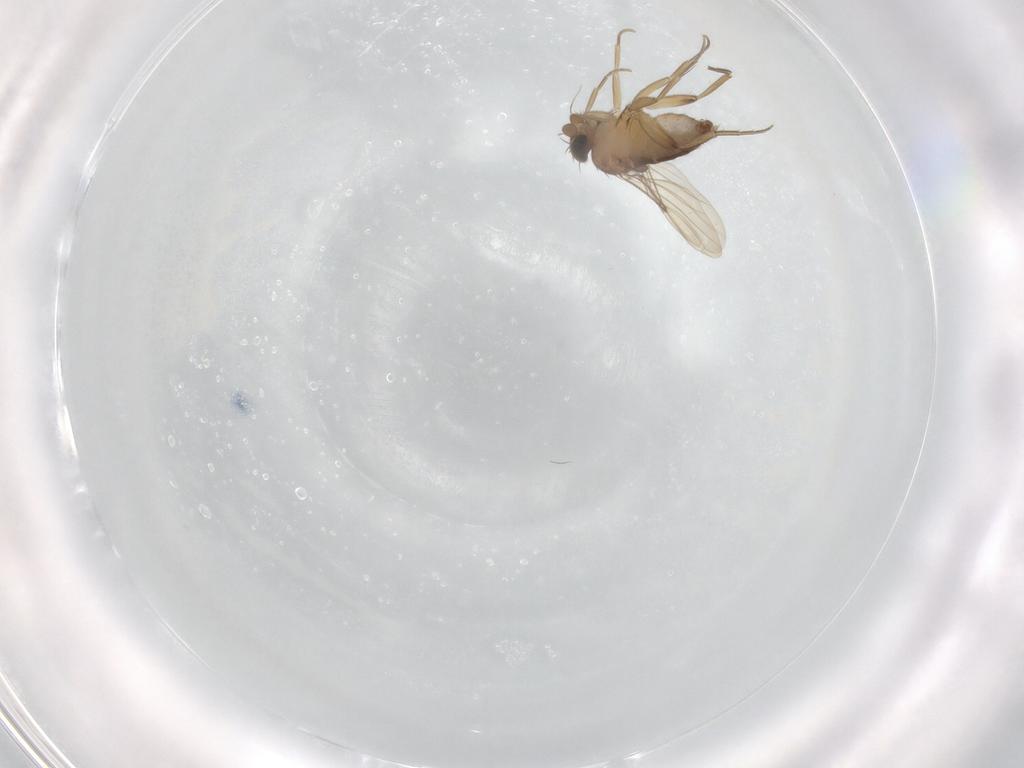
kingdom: Animalia
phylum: Arthropoda
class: Insecta
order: Diptera
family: Phoridae
